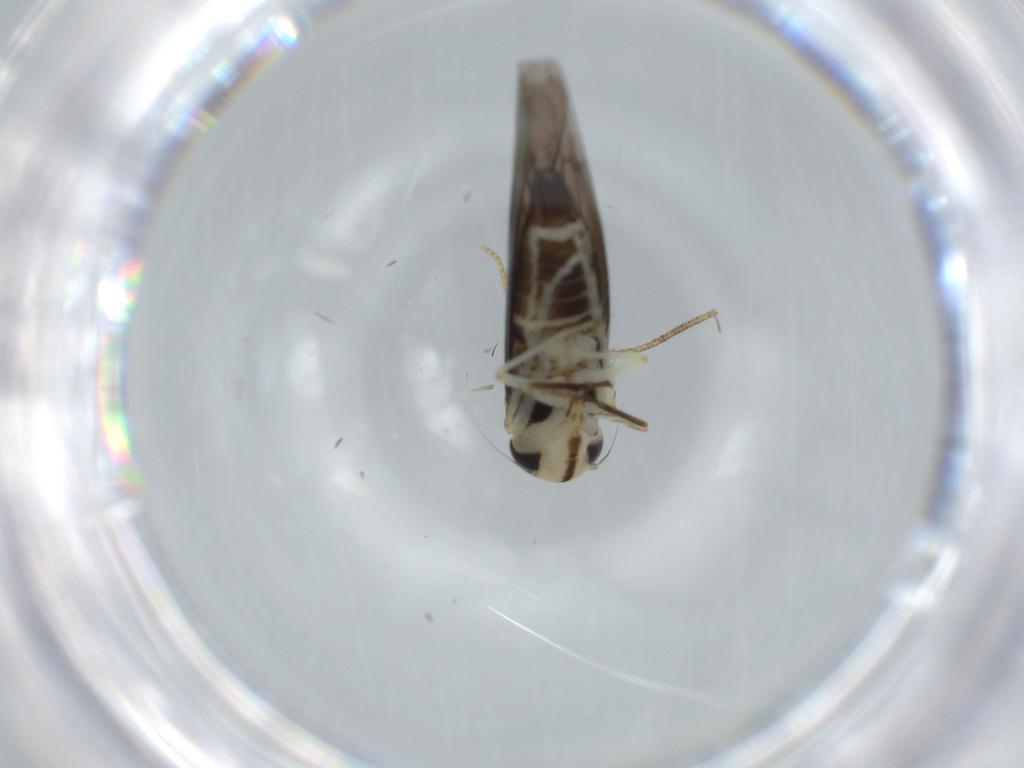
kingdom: Animalia
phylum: Arthropoda
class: Insecta
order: Hemiptera
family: Cicadellidae
